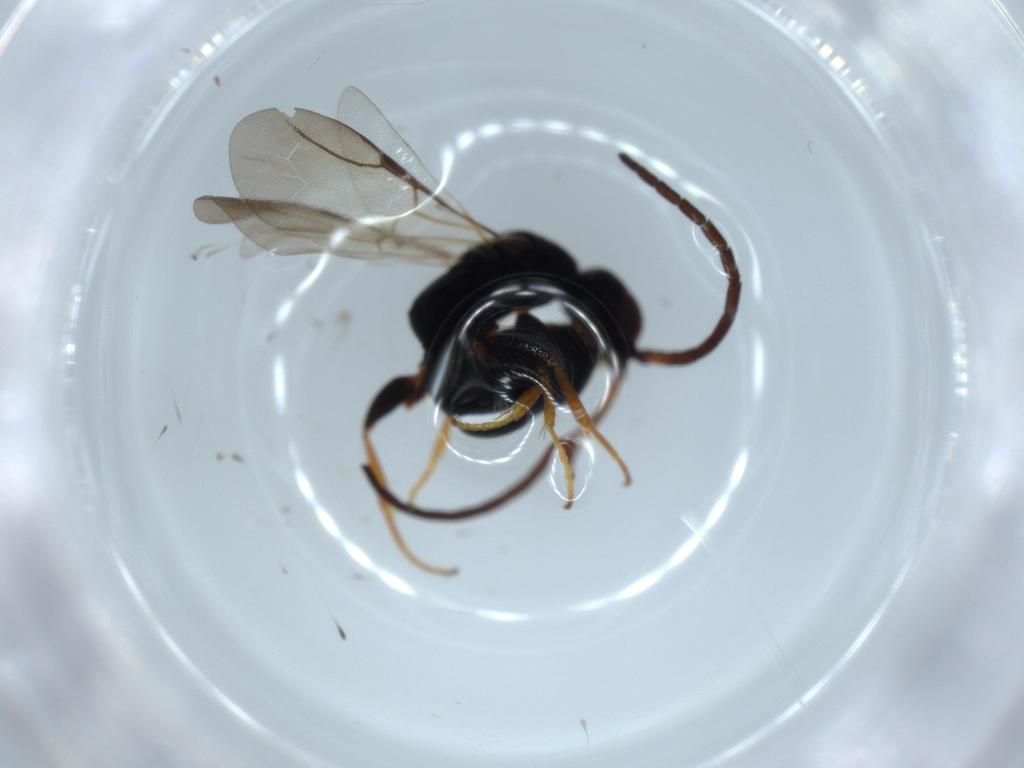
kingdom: Animalia
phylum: Arthropoda
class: Insecta
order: Hymenoptera
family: Bethylidae
